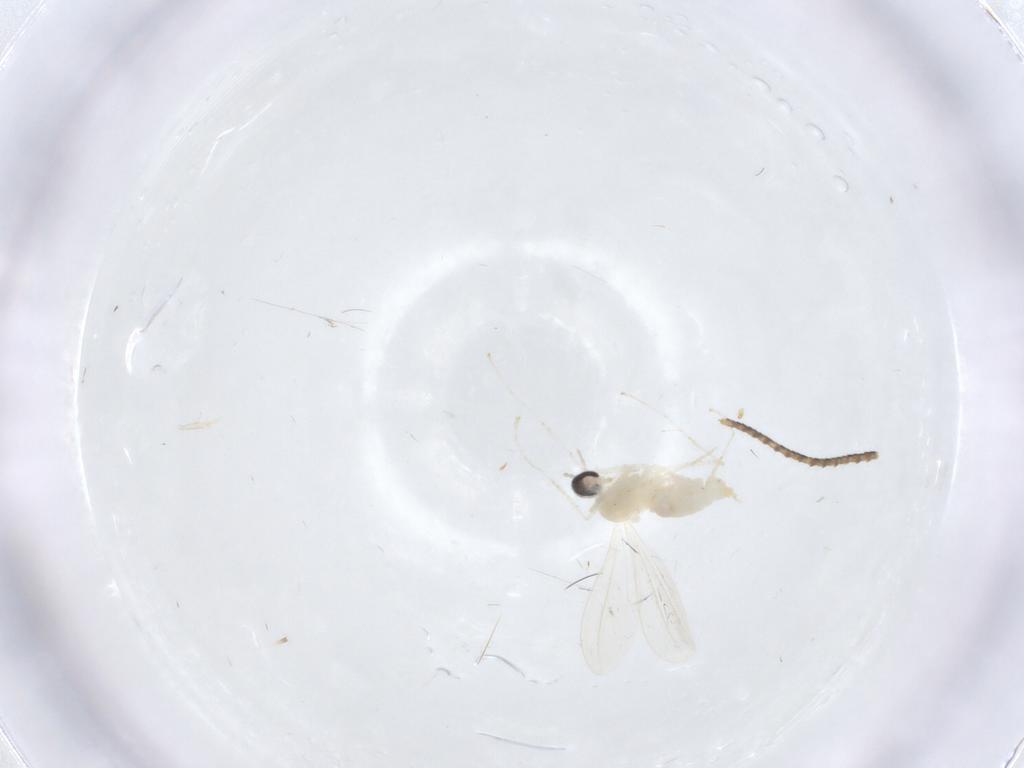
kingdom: Animalia
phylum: Arthropoda
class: Insecta
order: Diptera
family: Cecidomyiidae
